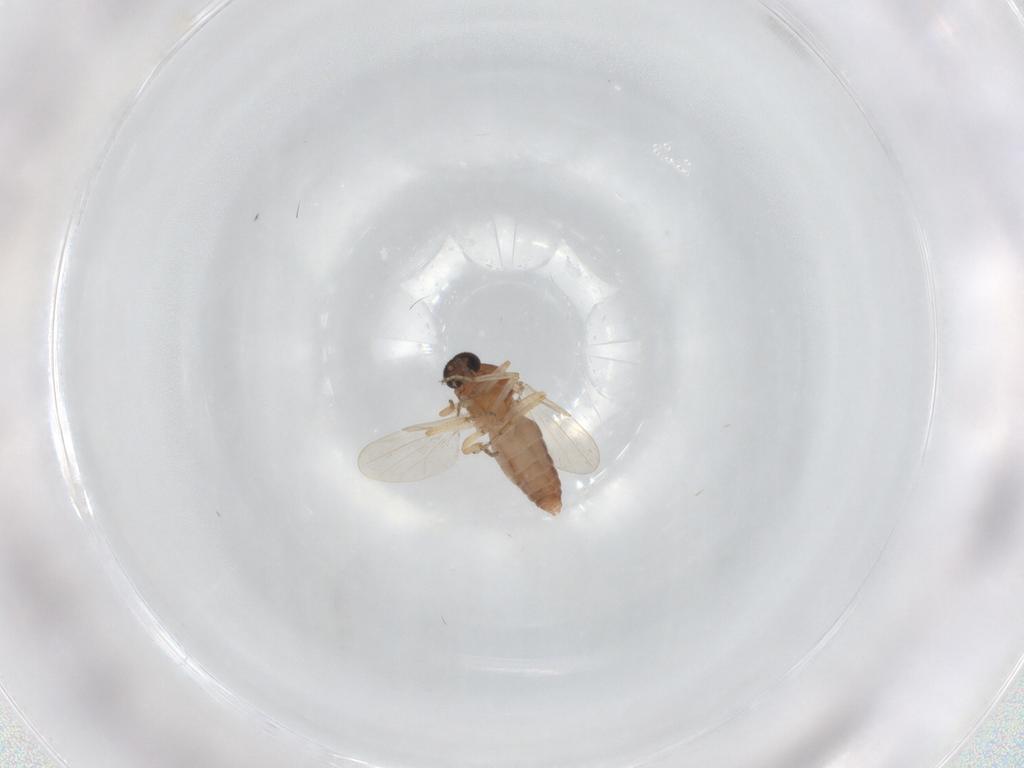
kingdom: Animalia
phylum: Arthropoda
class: Insecta
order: Diptera
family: Ceratopogonidae
